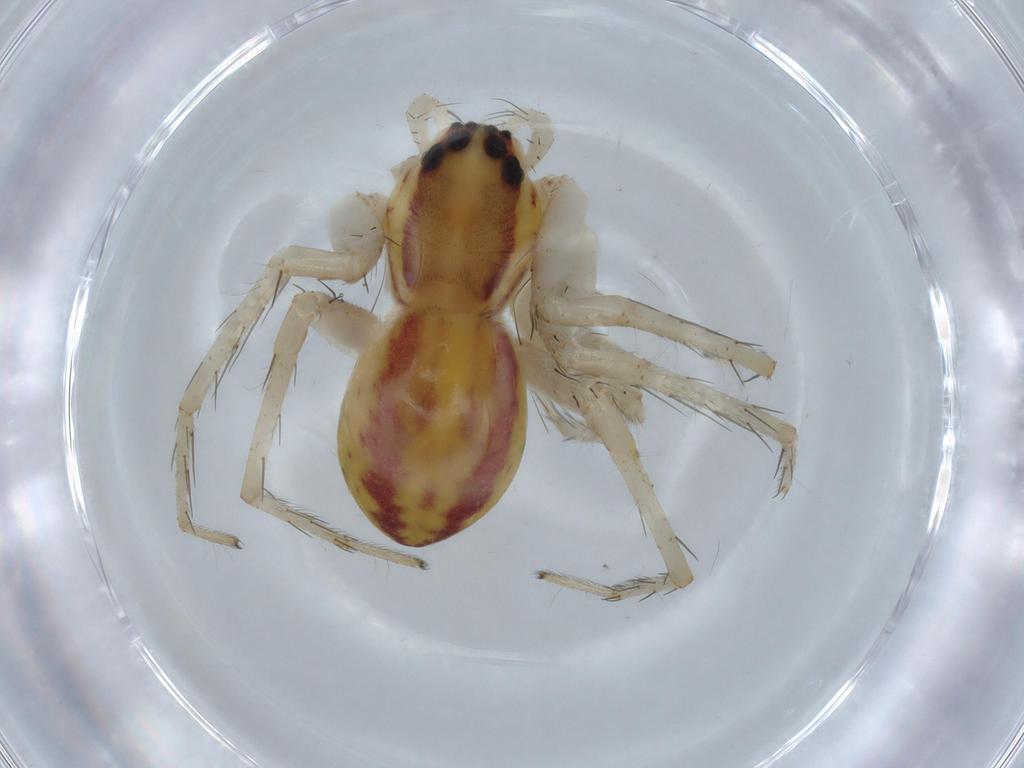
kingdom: Animalia
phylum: Arthropoda
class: Arachnida
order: Araneae
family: Pisauridae
